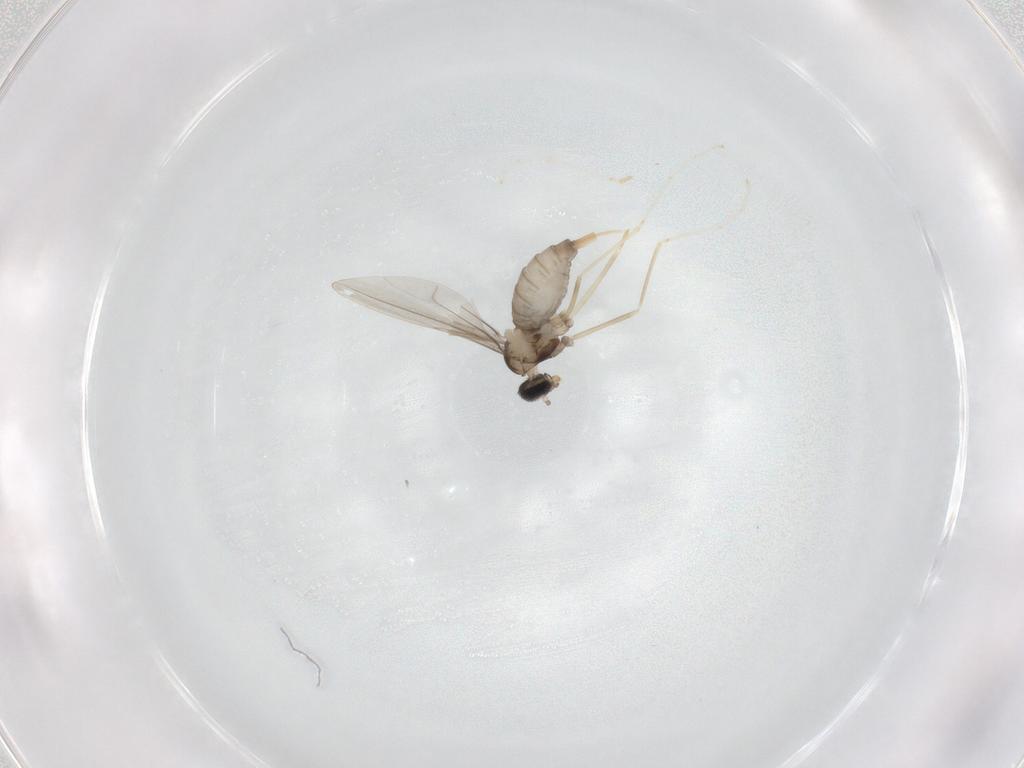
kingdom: Animalia
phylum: Arthropoda
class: Insecta
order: Diptera
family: Cecidomyiidae
